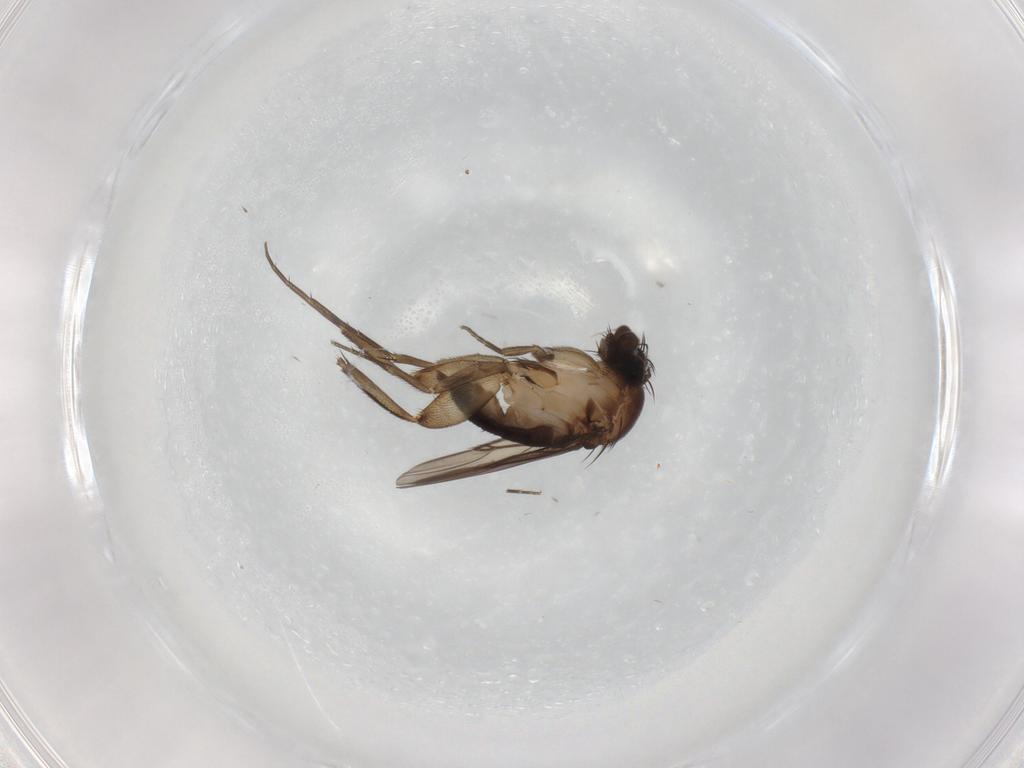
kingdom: Animalia
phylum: Arthropoda
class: Insecta
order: Diptera
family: Phoridae
